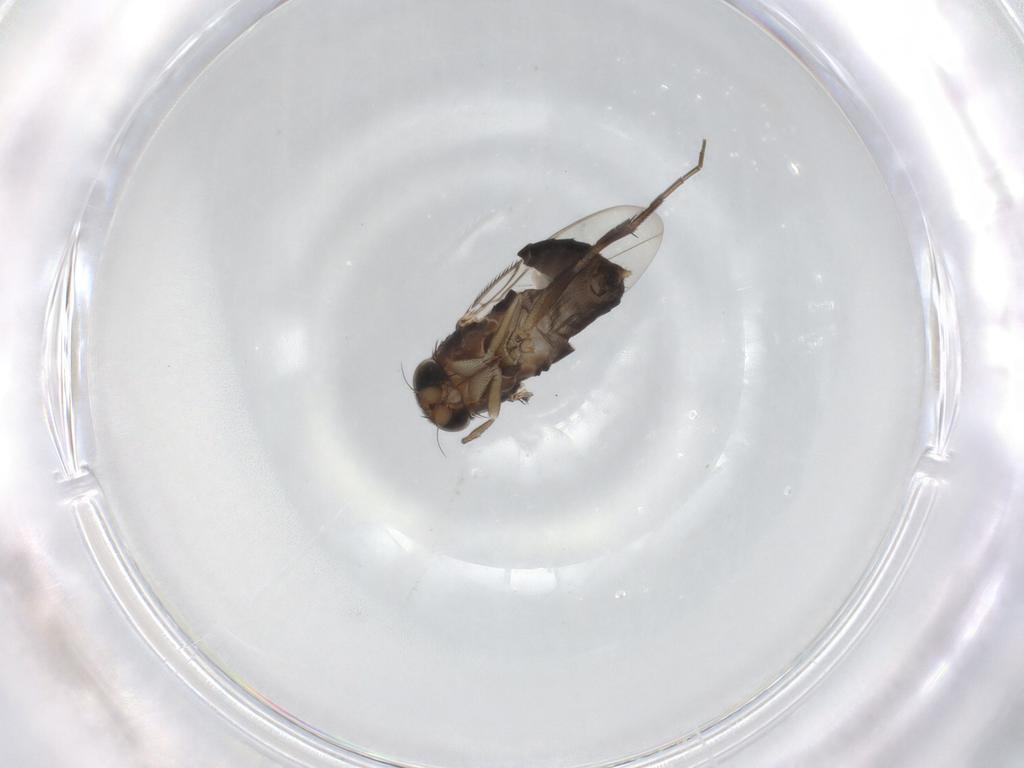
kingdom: Animalia
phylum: Arthropoda
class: Insecta
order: Diptera
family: Phoridae
